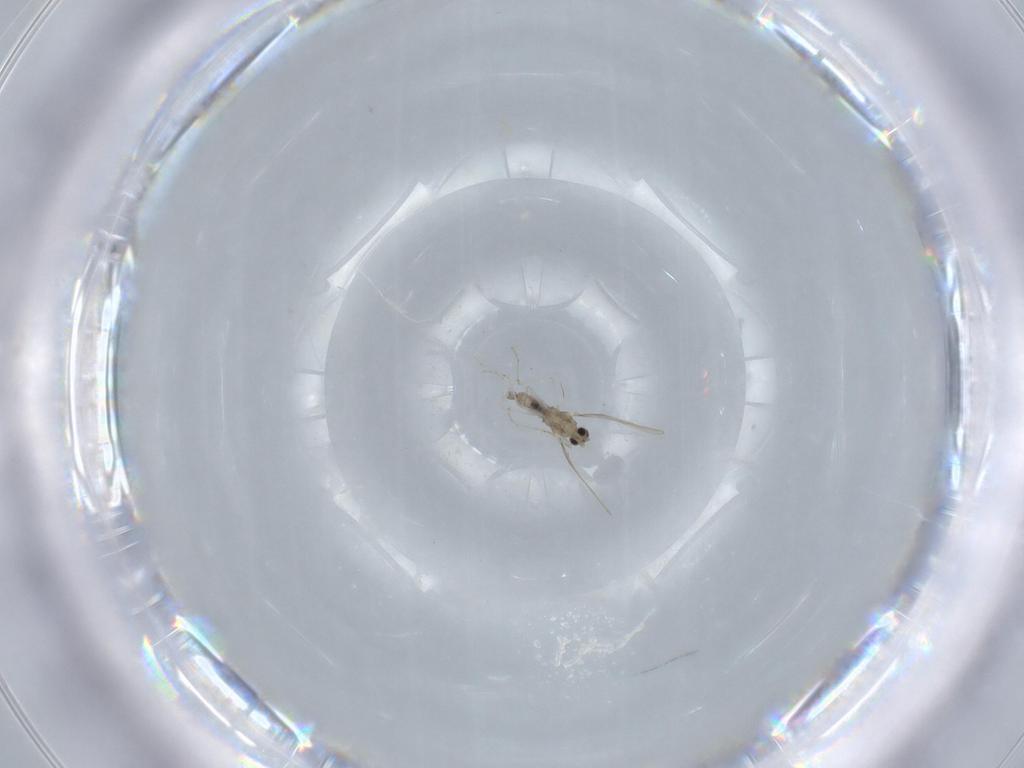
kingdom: Animalia
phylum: Arthropoda
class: Insecta
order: Diptera
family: Cecidomyiidae
